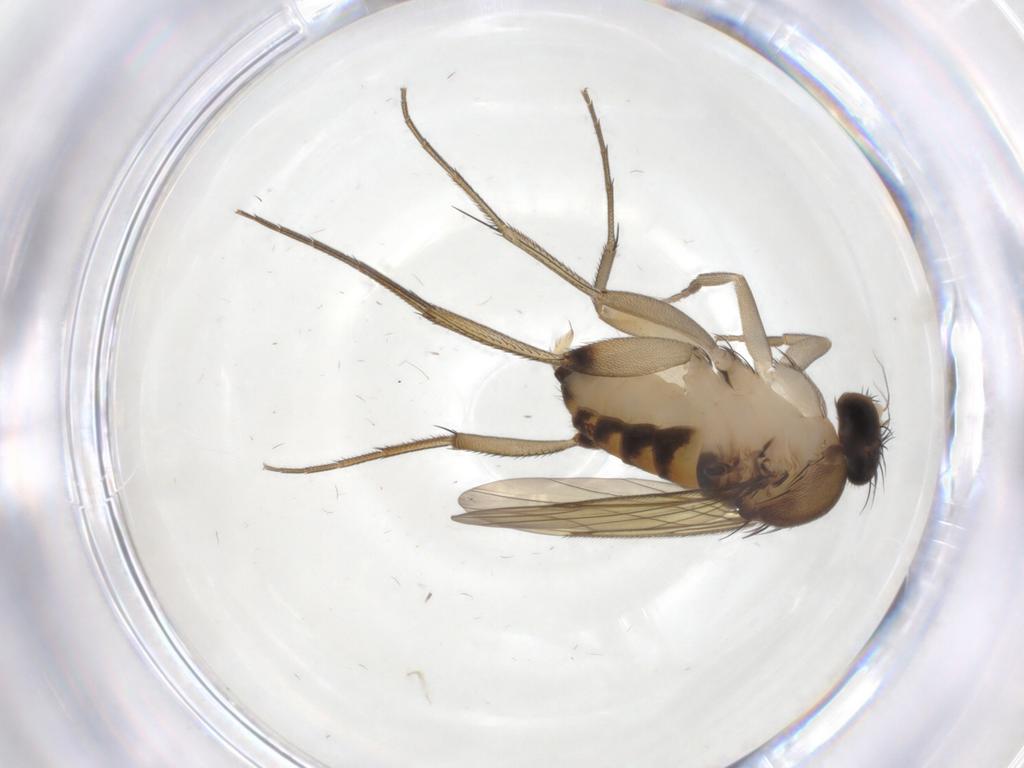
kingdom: Animalia
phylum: Arthropoda
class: Insecta
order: Diptera
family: Phoridae
